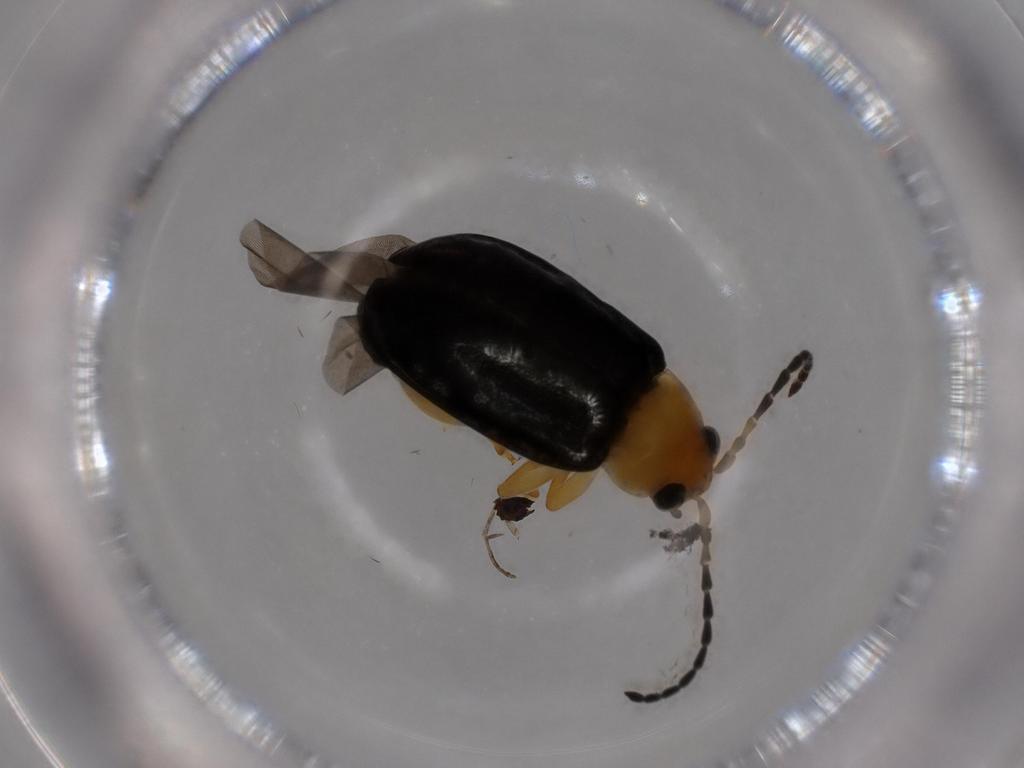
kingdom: Animalia
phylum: Arthropoda
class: Insecta
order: Coleoptera
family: Chrysomelidae
